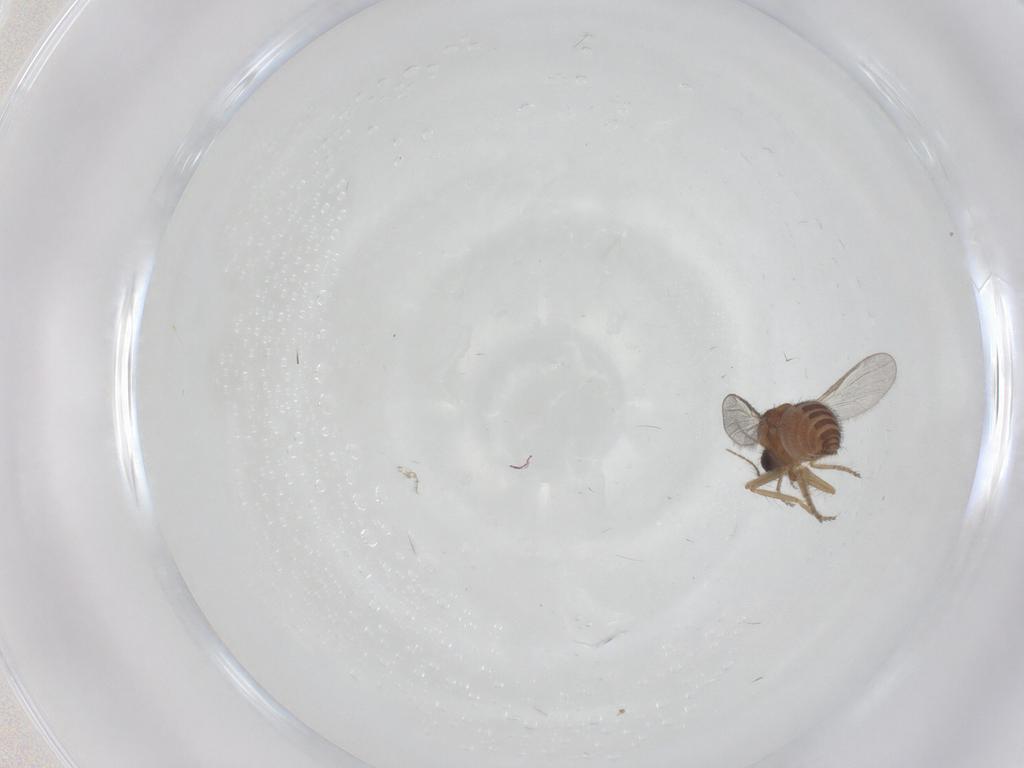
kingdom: Animalia
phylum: Arthropoda
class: Insecta
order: Diptera
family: Ceratopogonidae
